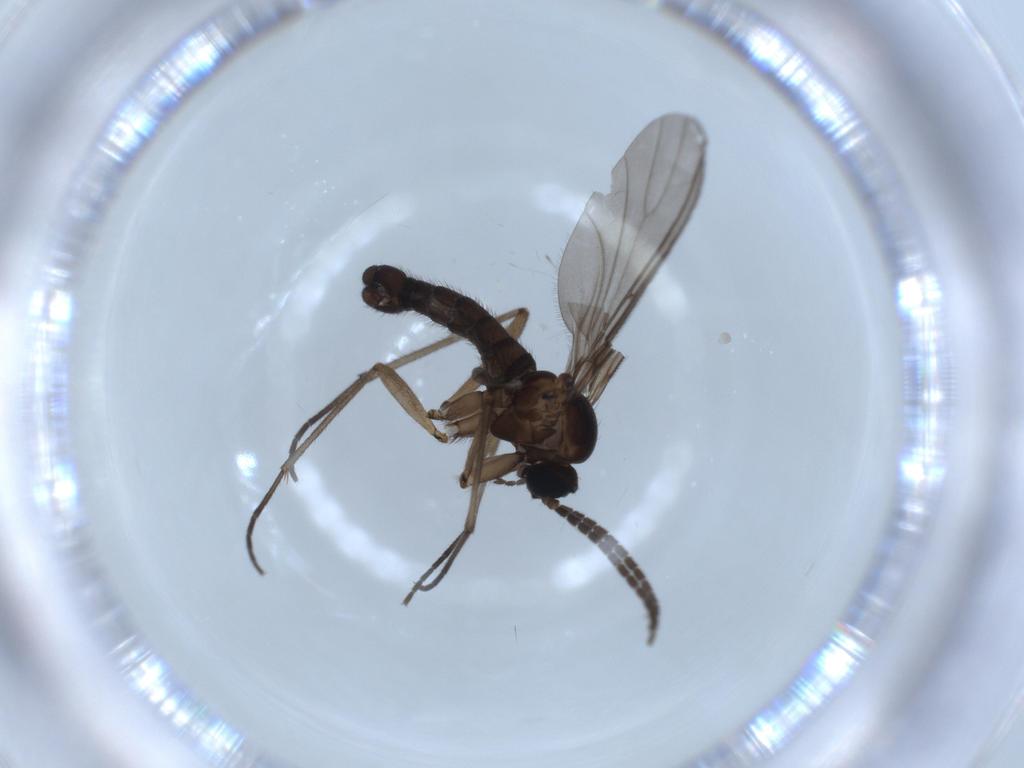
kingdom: Animalia
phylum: Arthropoda
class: Insecta
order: Diptera
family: Sciaridae
